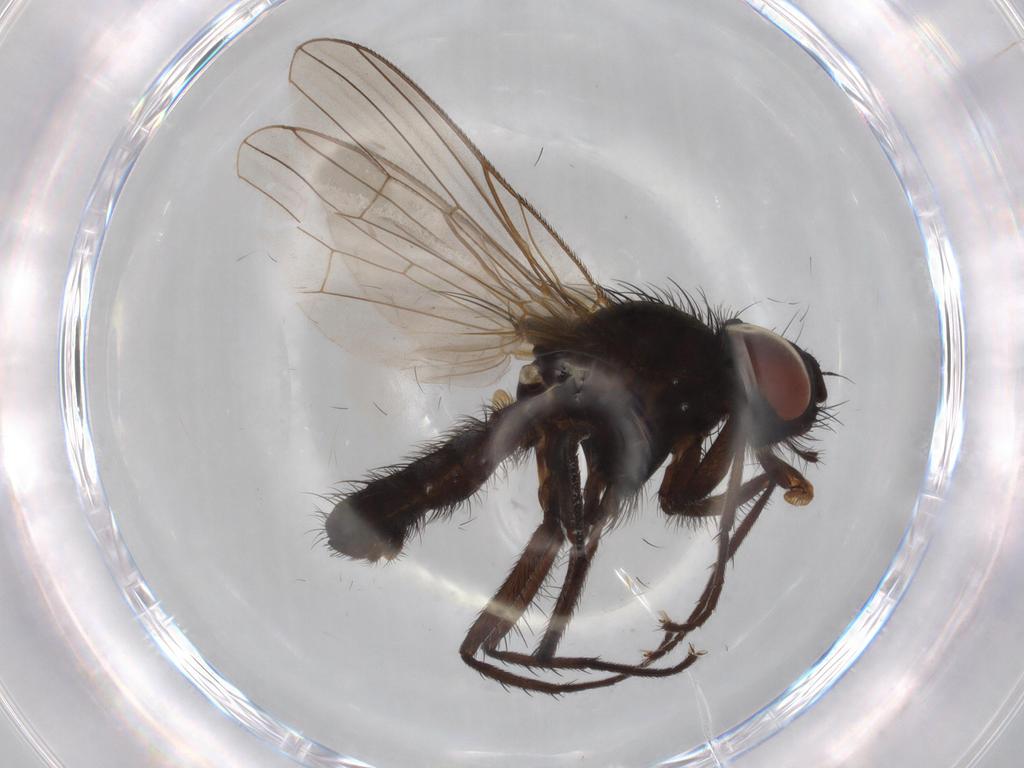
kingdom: Animalia
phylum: Arthropoda
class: Insecta
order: Diptera
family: Anthomyiidae
